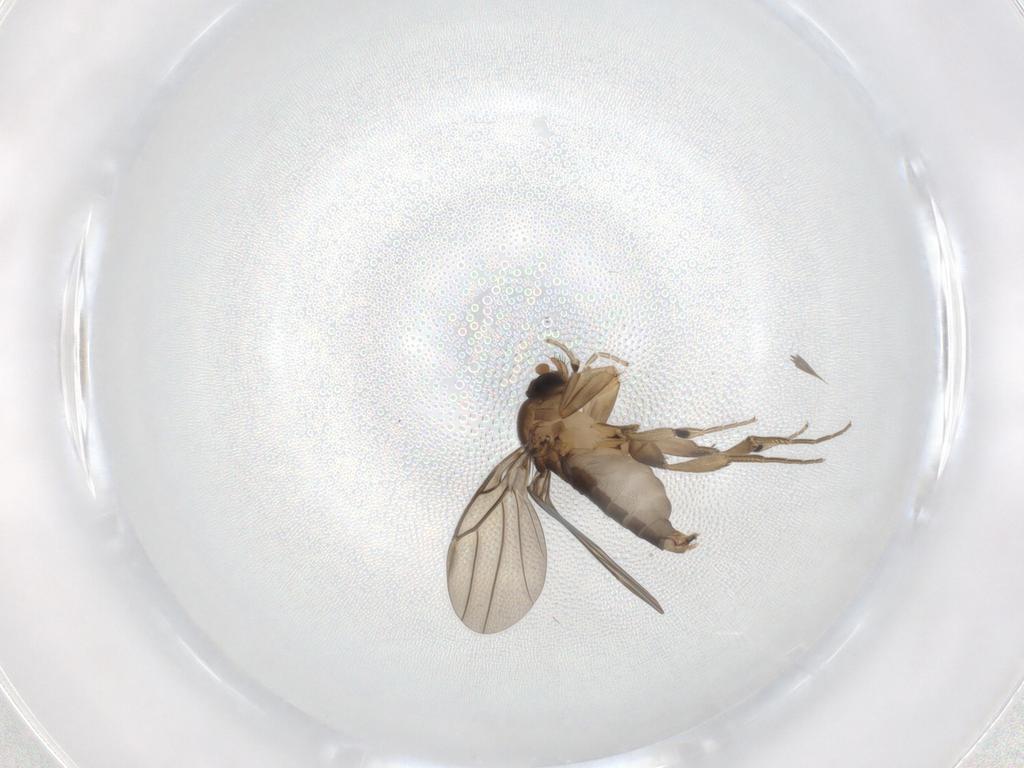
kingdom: Animalia
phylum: Arthropoda
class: Insecta
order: Diptera
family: Phoridae
